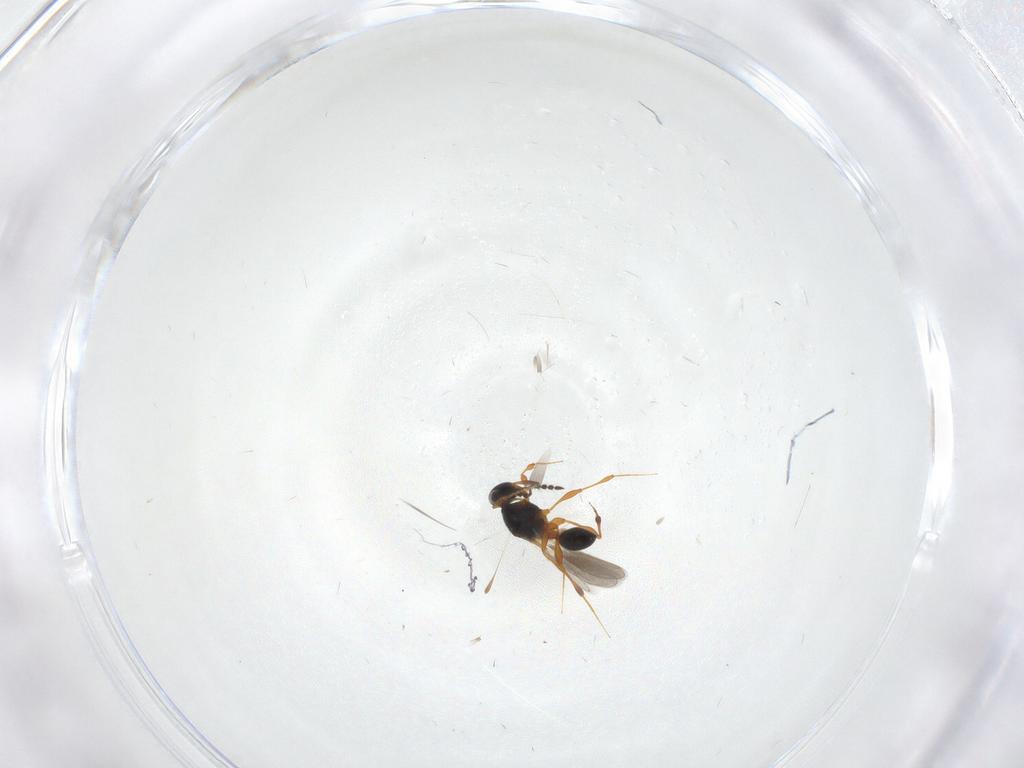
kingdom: Animalia
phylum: Arthropoda
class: Insecta
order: Hymenoptera
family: Platygastridae
